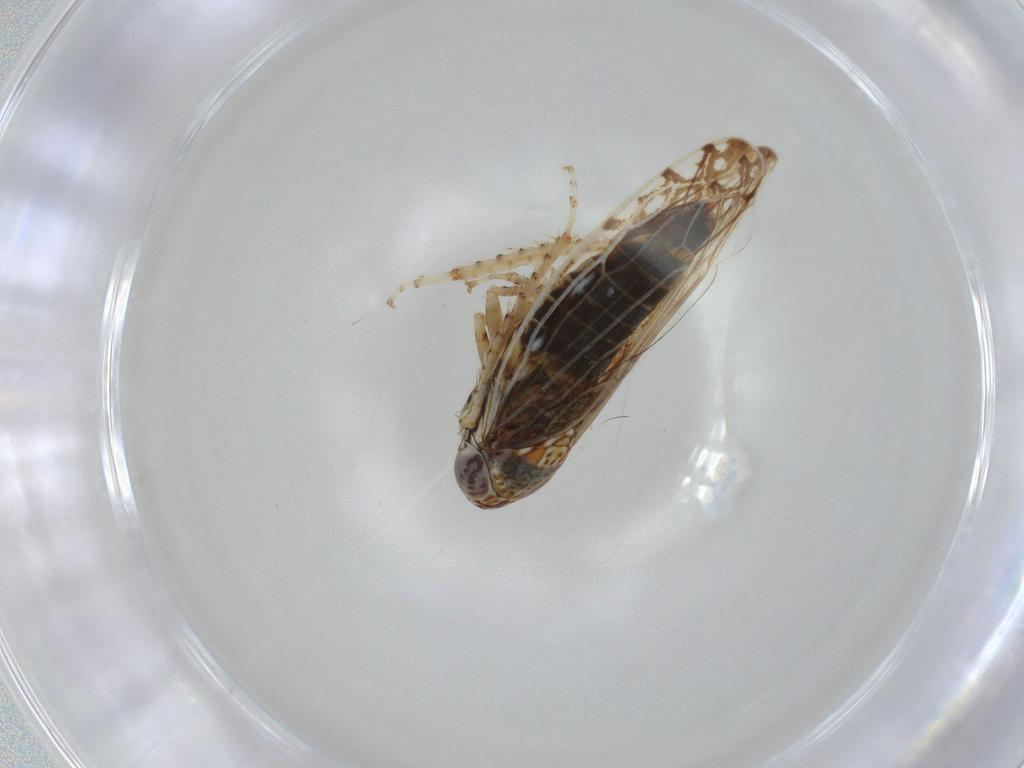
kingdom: Animalia
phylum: Arthropoda
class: Insecta
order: Hemiptera
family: Cicadellidae
